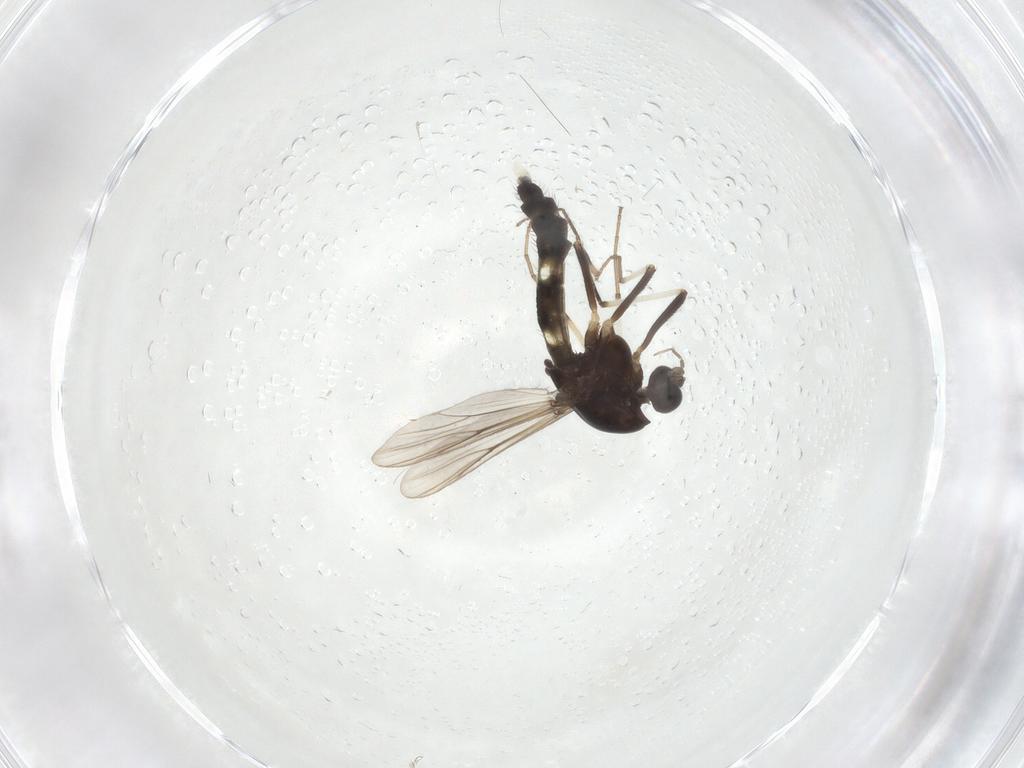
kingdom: Animalia
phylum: Arthropoda
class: Insecta
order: Diptera
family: Chironomidae
